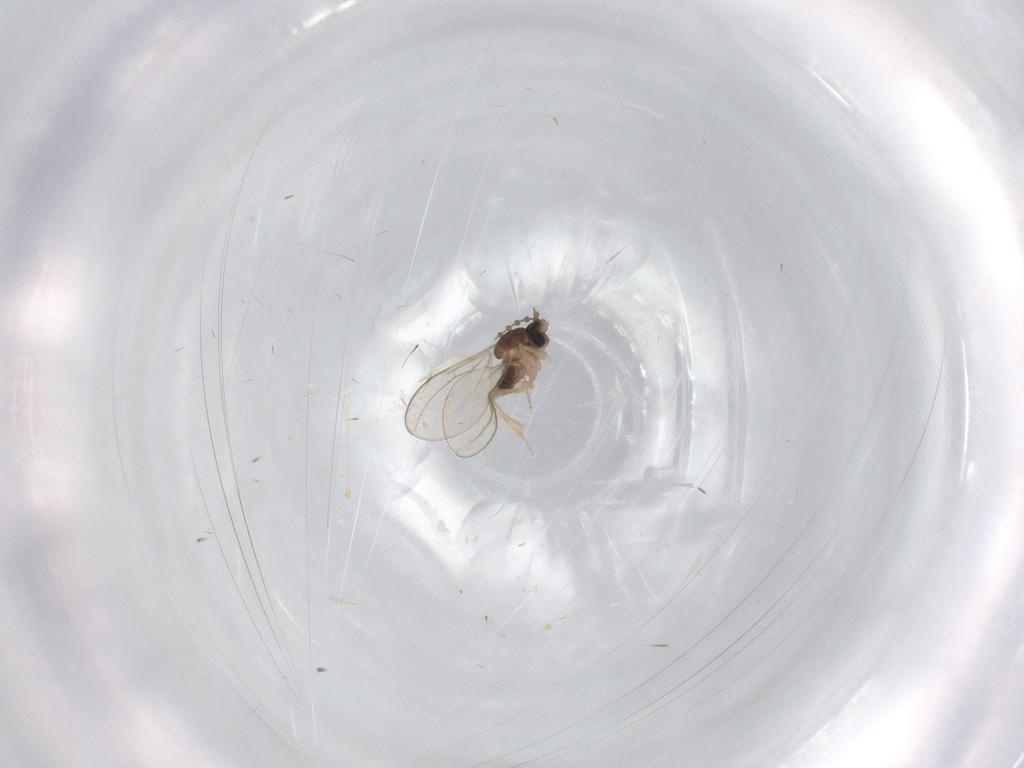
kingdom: Animalia
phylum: Arthropoda
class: Insecta
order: Diptera
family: Cecidomyiidae
